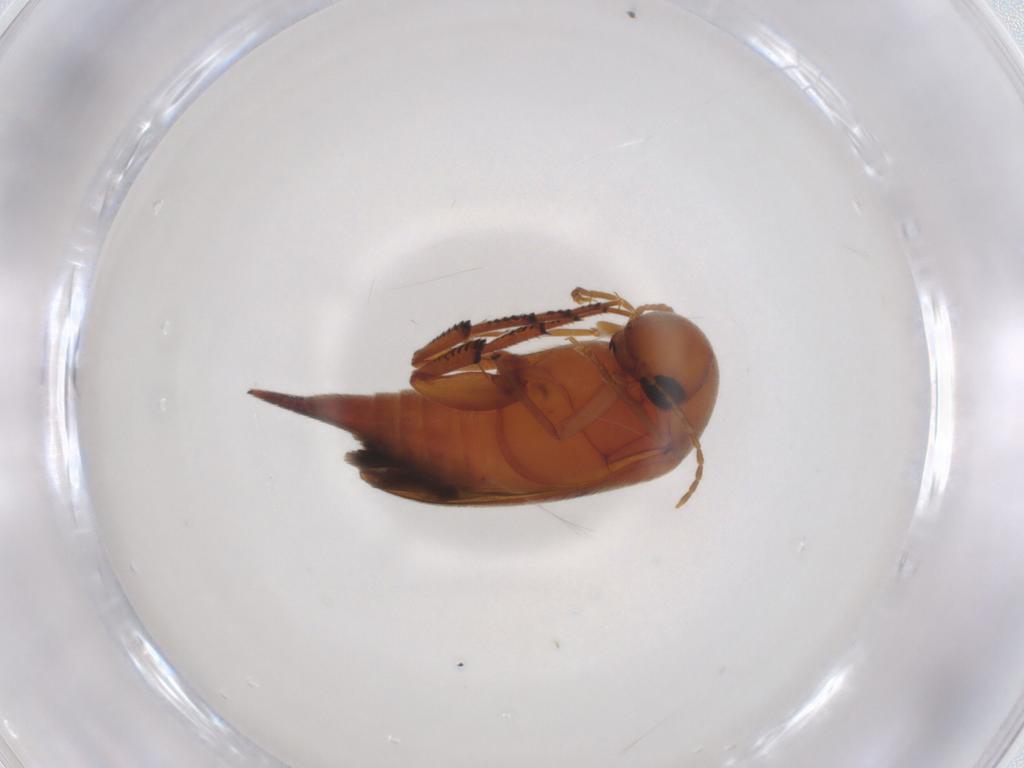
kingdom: Animalia
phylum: Arthropoda
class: Insecta
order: Coleoptera
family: Mordellidae
